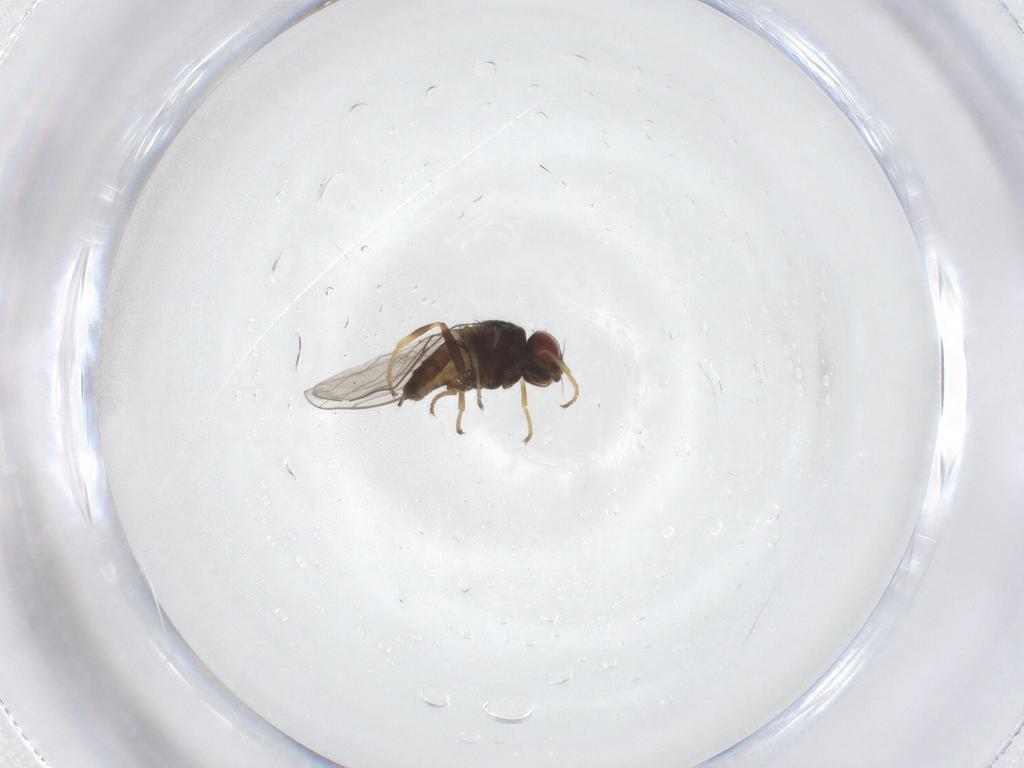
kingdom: Animalia
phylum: Arthropoda
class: Insecta
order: Diptera
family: Chloropidae
